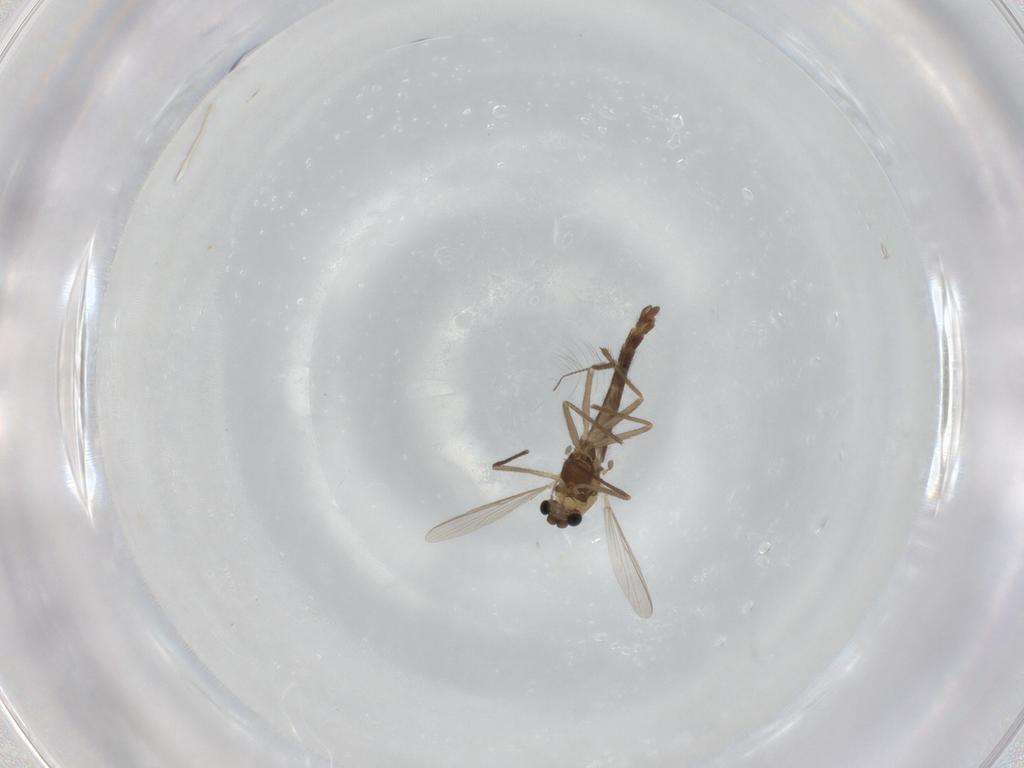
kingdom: Animalia
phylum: Arthropoda
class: Insecta
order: Diptera
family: Chironomidae
